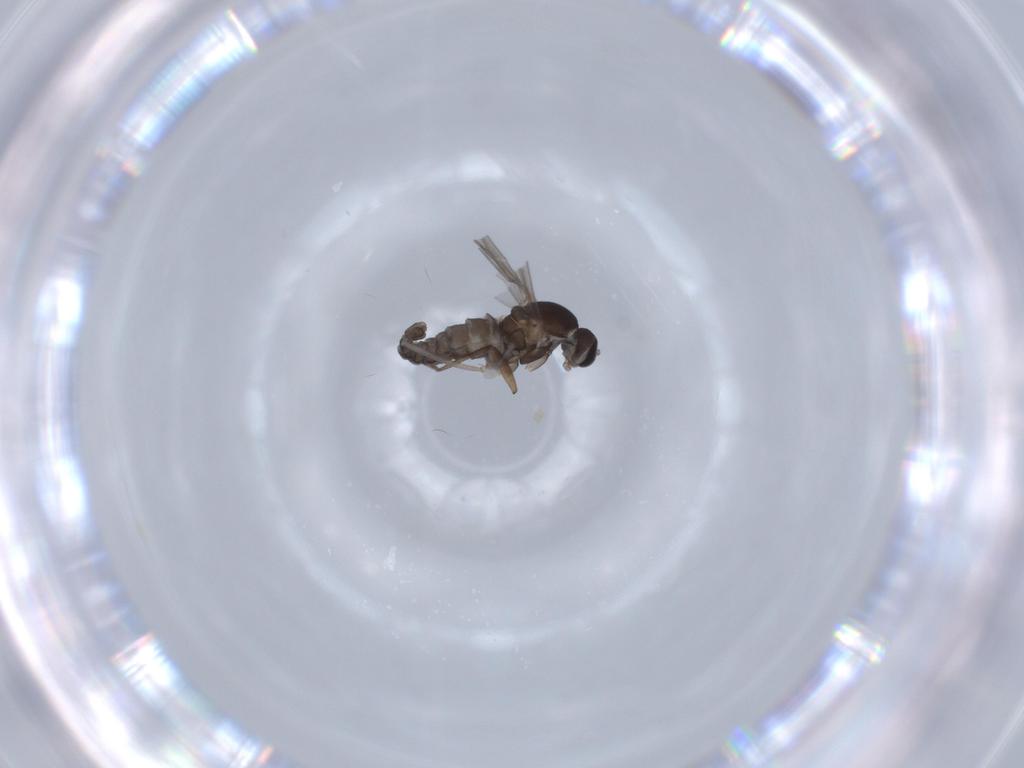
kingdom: Animalia
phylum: Arthropoda
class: Insecta
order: Diptera
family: Cecidomyiidae
